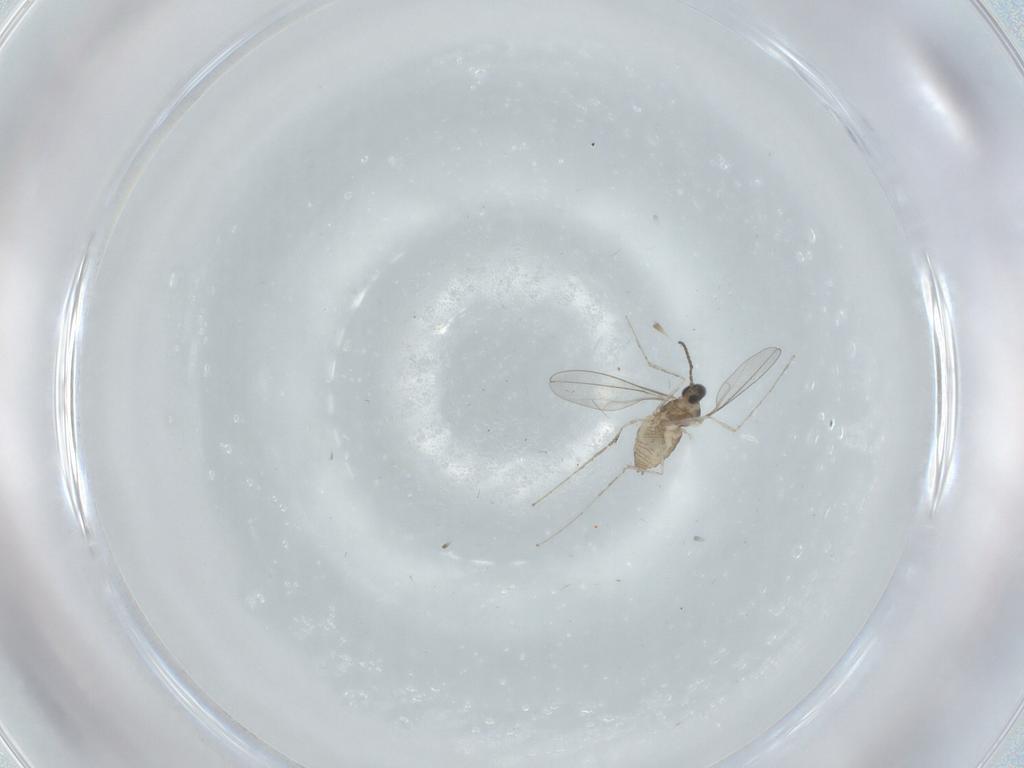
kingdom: Animalia
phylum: Arthropoda
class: Insecta
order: Diptera
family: Cecidomyiidae
